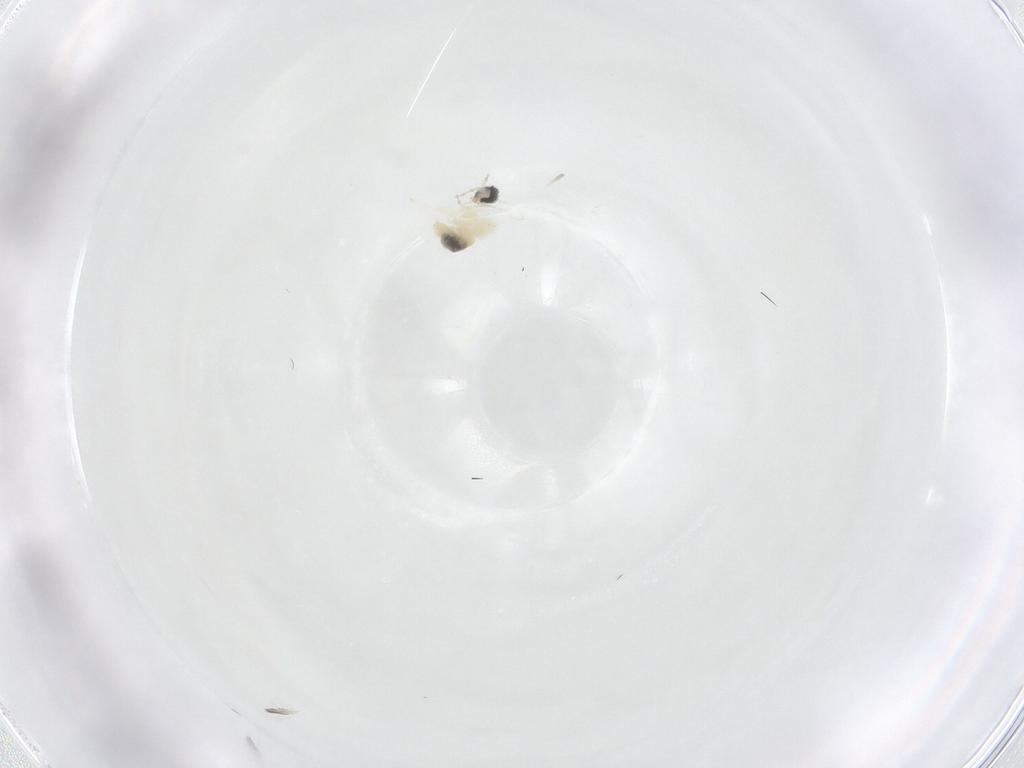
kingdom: Animalia
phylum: Arthropoda
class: Insecta
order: Diptera
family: Cecidomyiidae
